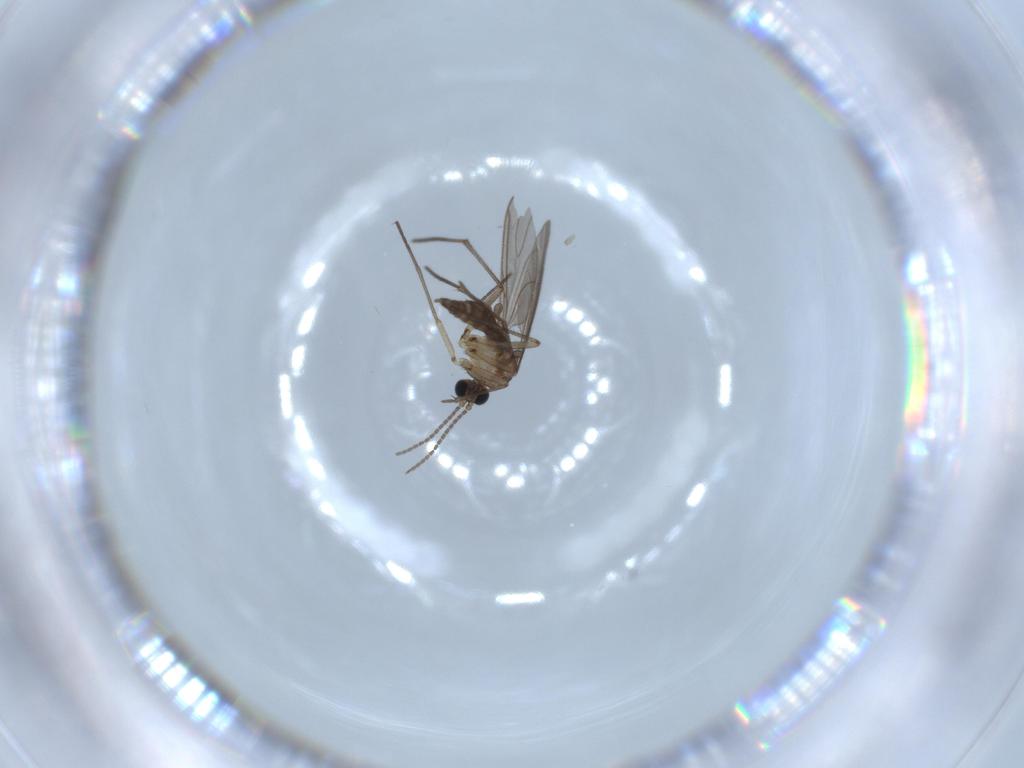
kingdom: Animalia
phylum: Arthropoda
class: Insecta
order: Diptera
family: Sciaridae
